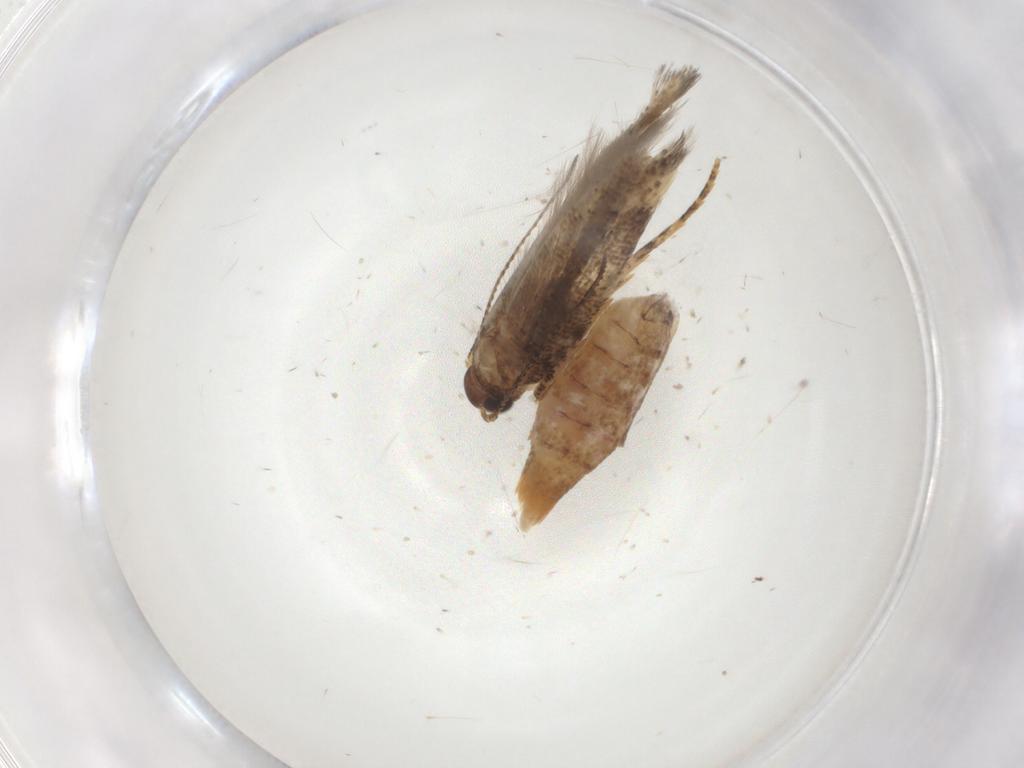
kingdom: Animalia
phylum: Arthropoda
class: Insecta
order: Lepidoptera
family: Gelechiidae
